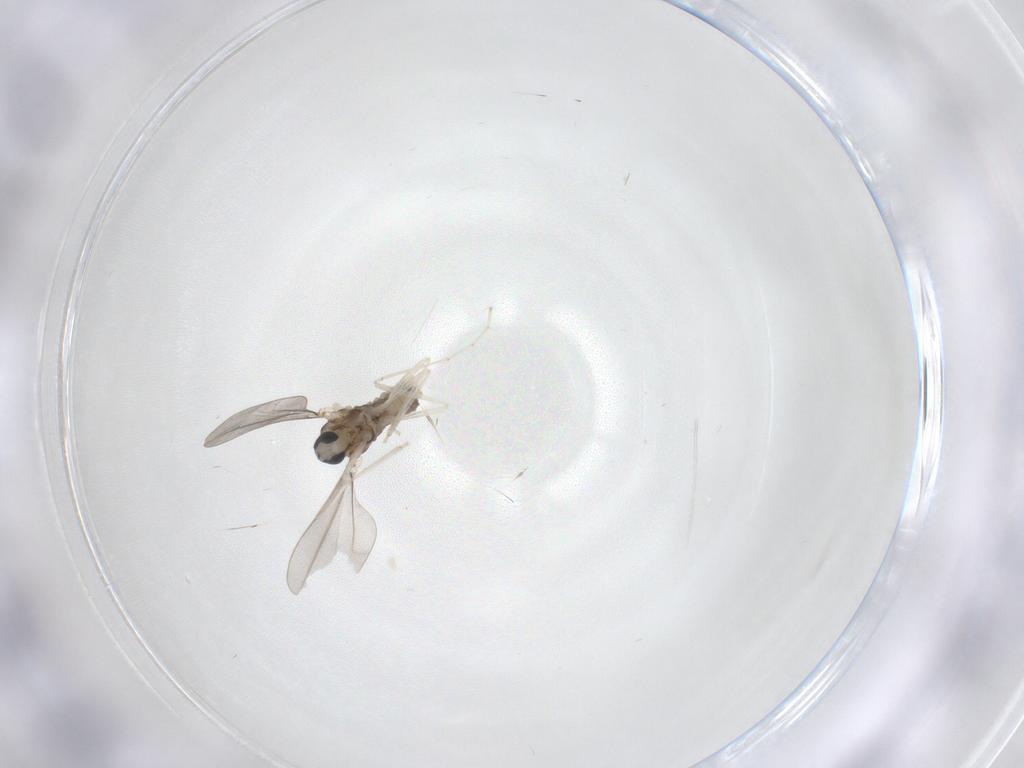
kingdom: Animalia
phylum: Arthropoda
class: Insecta
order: Diptera
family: Cecidomyiidae
